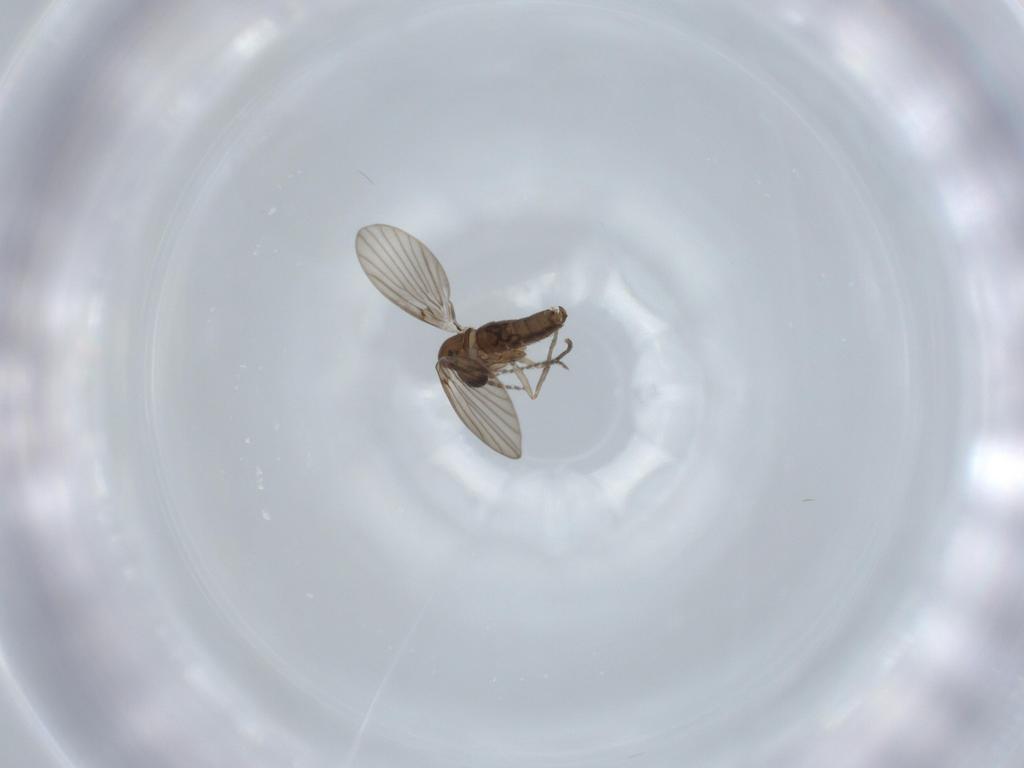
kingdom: Animalia
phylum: Arthropoda
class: Insecta
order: Diptera
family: Psychodidae
